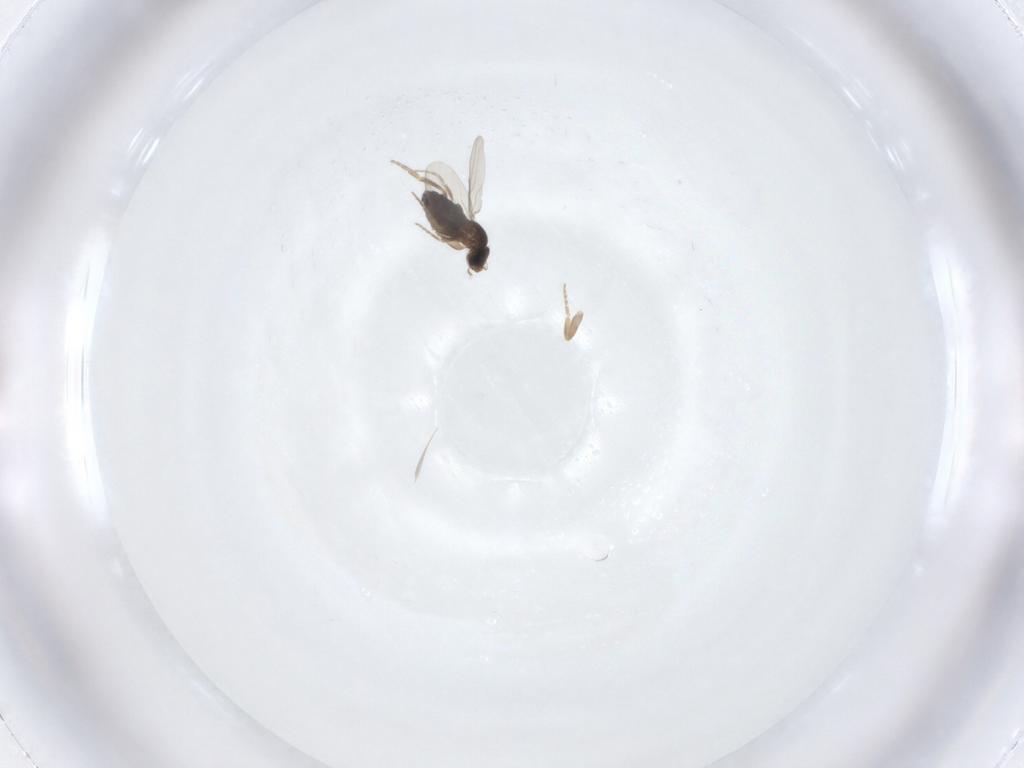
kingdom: Animalia
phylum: Arthropoda
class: Insecta
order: Diptera
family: Phoridae
